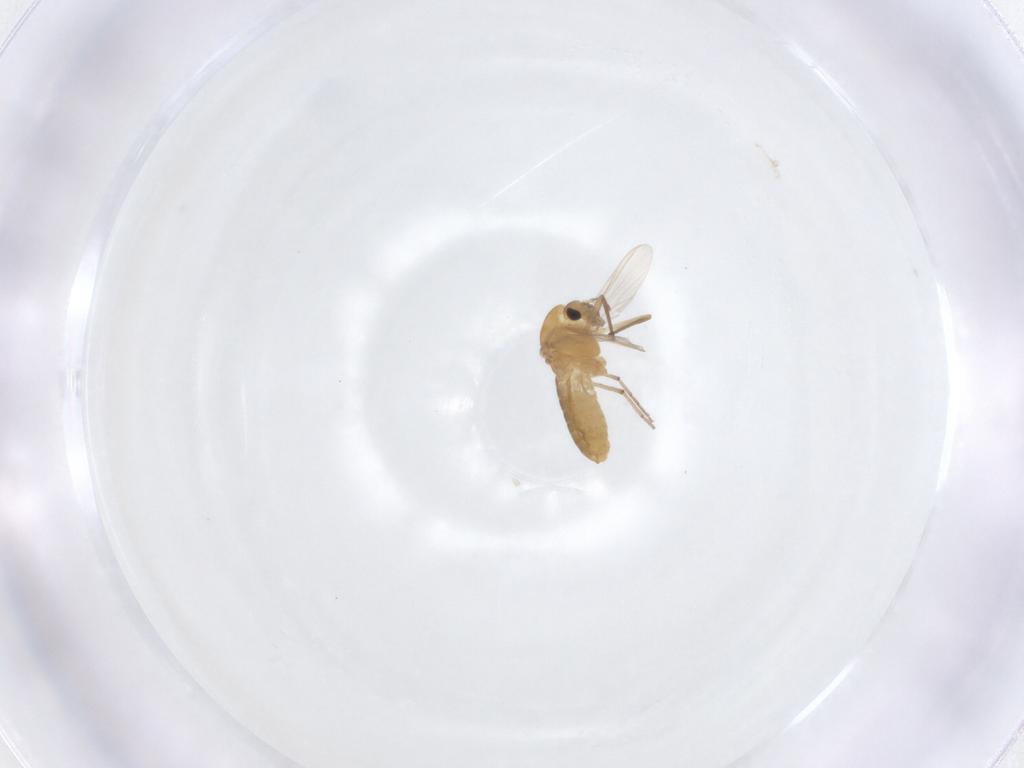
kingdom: Animalia
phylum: Arthropoda
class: Insecta
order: Diptera
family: Chironomidae
